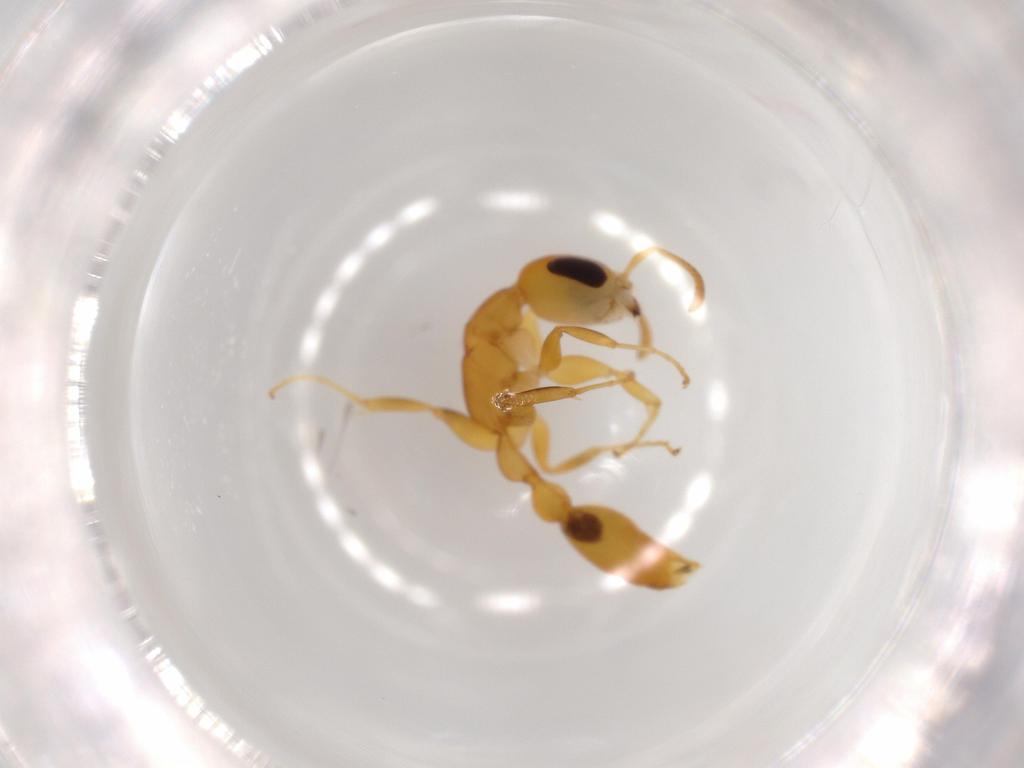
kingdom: Animalia
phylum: Arthropoda
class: Insecta
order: Hymenoptera
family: Formicidae
